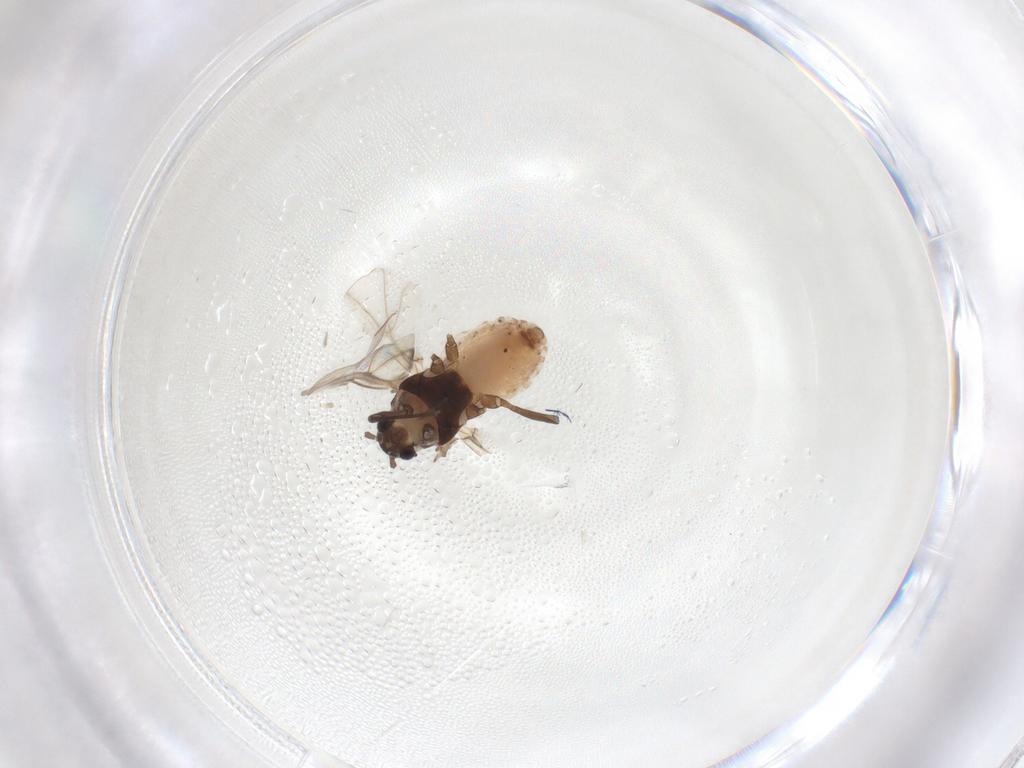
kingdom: Animalia
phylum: Arthropoda
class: Insecta
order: Hemiptera
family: Aphididae
